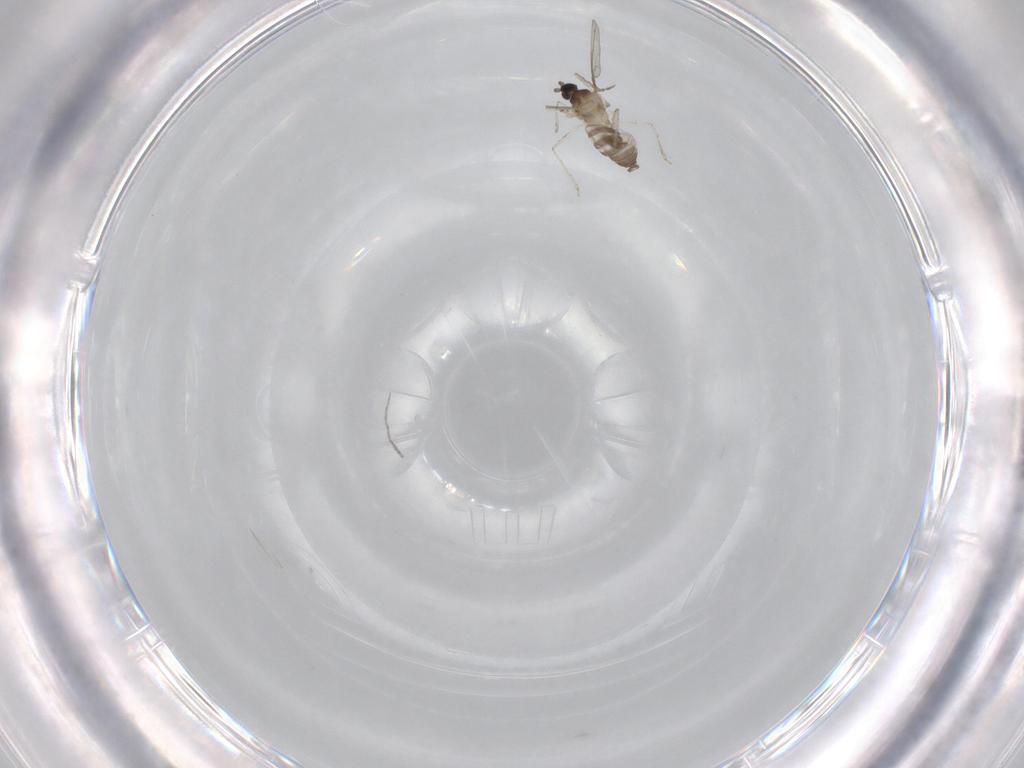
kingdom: Animalia
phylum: Arthropoda
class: Insecta
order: Diptera
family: Cecidomyiidae
